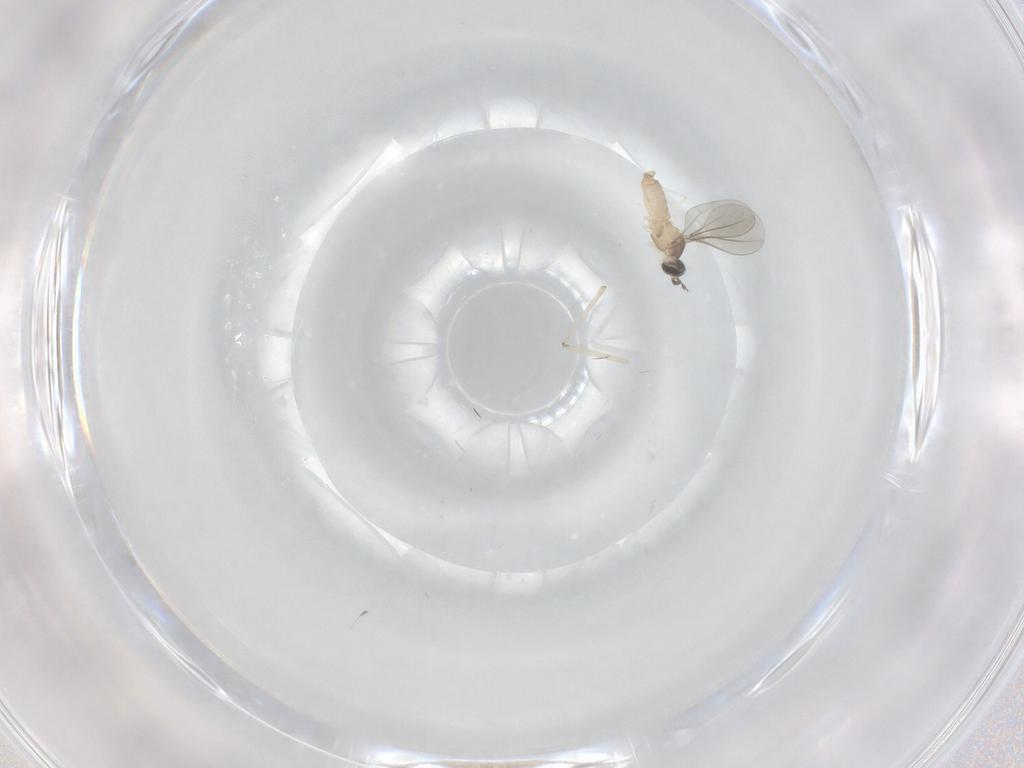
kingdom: Animalia
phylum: Arthropoda
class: Insecta
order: Diptera
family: Cecidomyiidae
